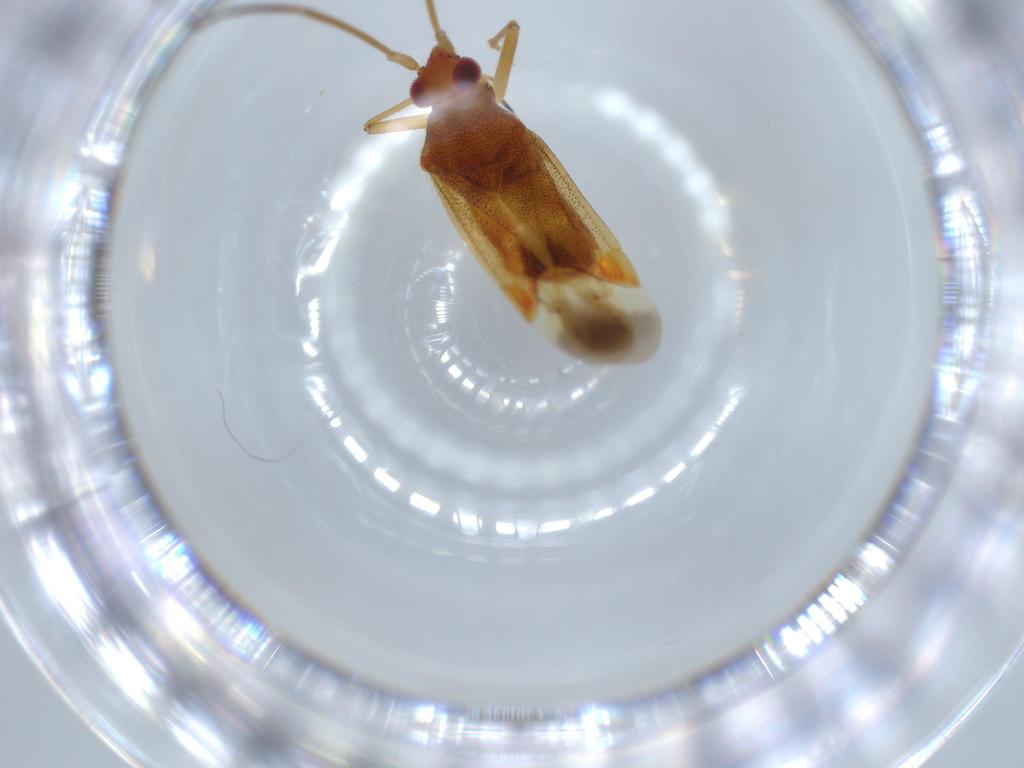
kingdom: Animalia
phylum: Arthropoda
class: Insecta
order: Hemiptera
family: Miridae
